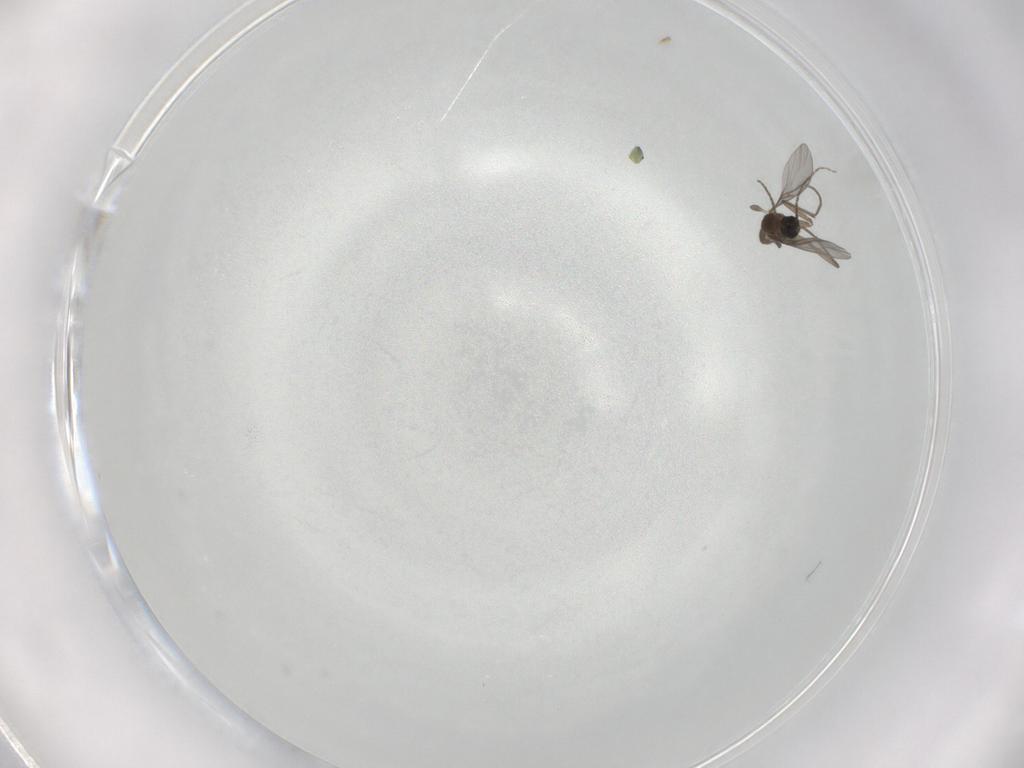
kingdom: Animalia
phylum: Arthropoda
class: Insecta
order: Diptera
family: Sciaridae
